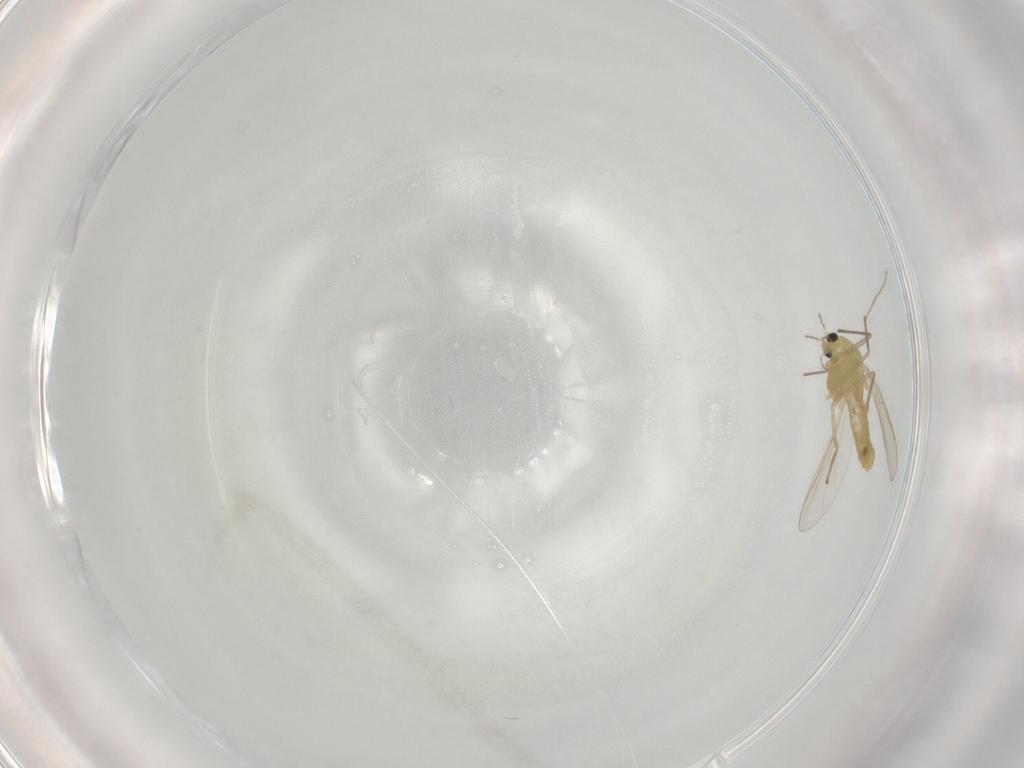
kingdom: Animalia
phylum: Arthropoda
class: Insecta
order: Diptera
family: Chironomidae
